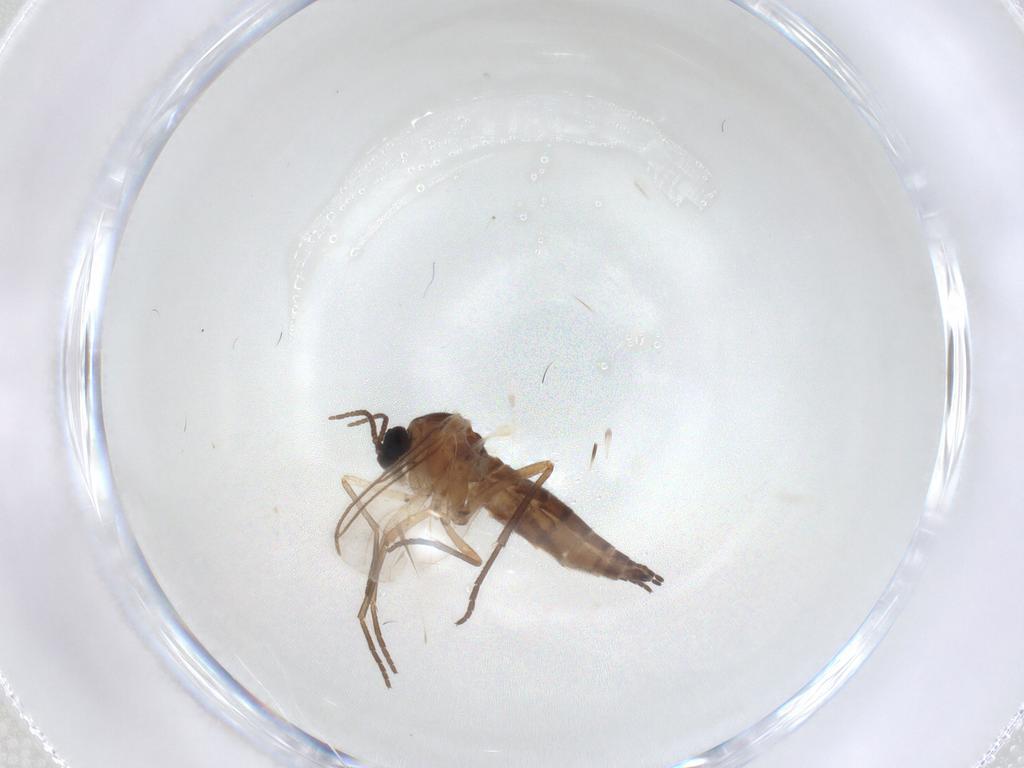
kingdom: Animalia
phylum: Arthropoda
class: Insecta
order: Diptera
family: Sciaridae
